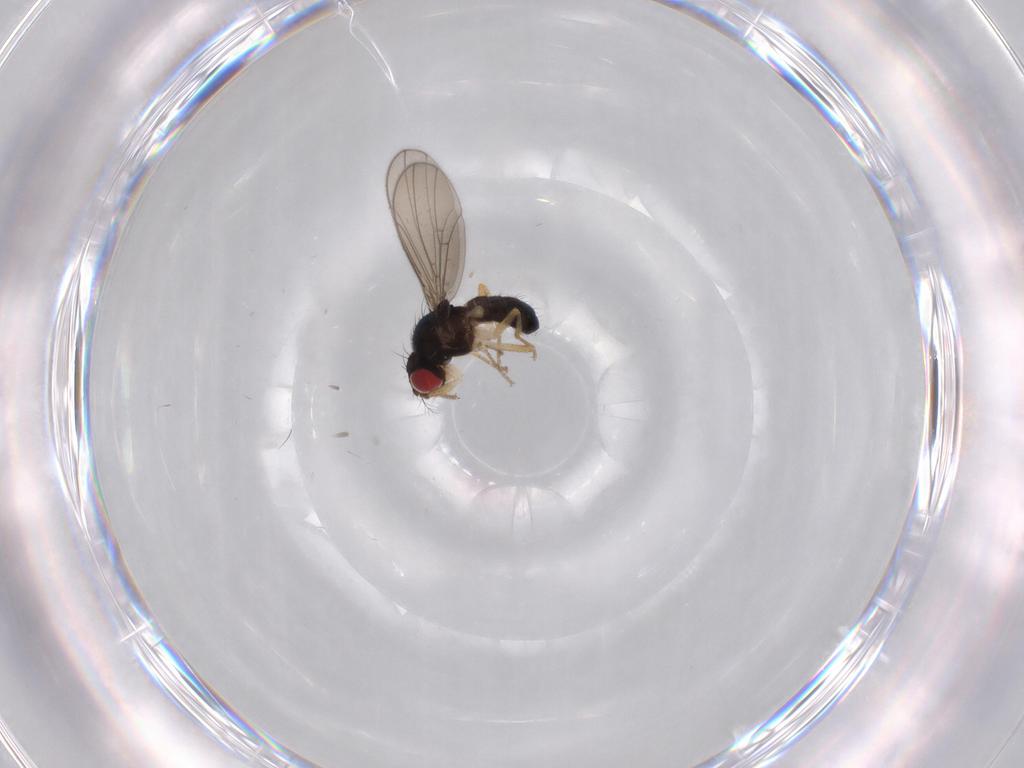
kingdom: Animalia
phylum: Arthropoda
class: Insecta
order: Diptera
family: Drosophilidae
